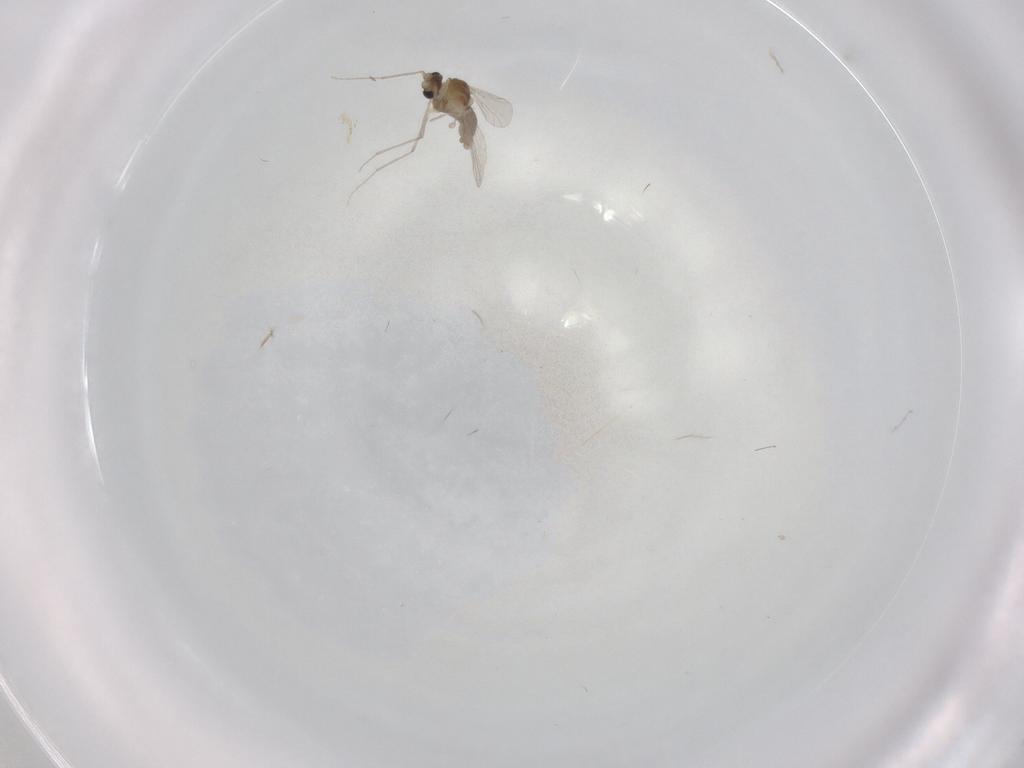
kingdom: Animalia
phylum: Arthropoda
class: Insecta
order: Diptera
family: Chironomidae
